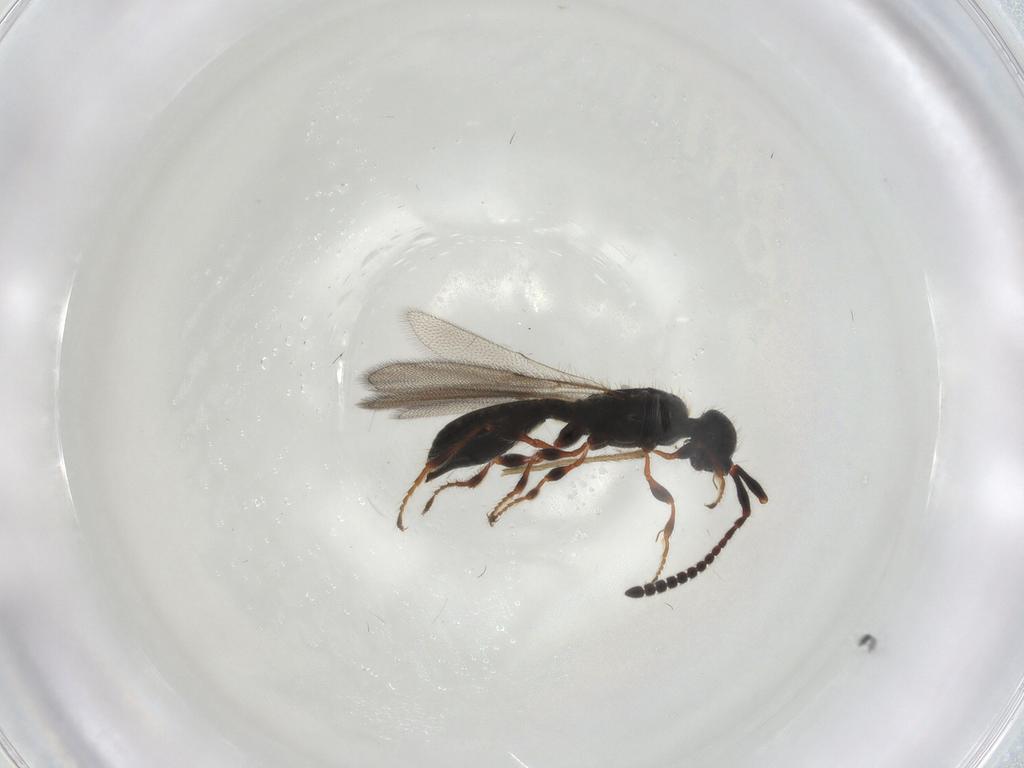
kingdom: Animalia
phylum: Arthropoda
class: Insecta
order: Hymenoptera
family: Diapriidae
